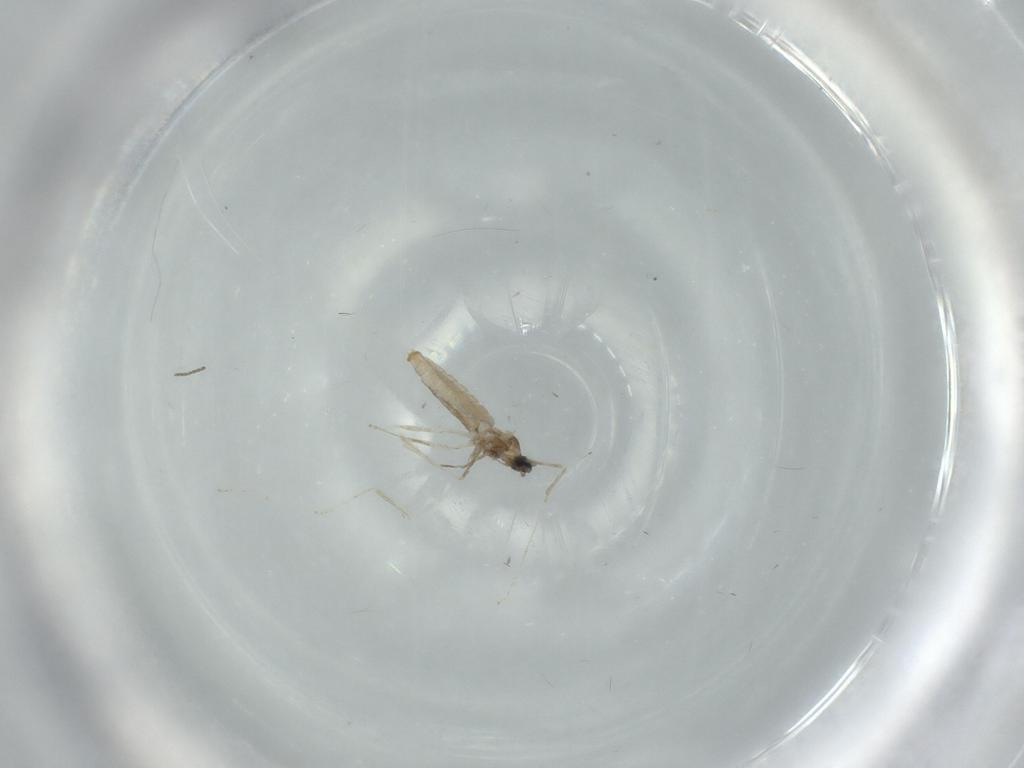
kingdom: Animalia
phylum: Arthropoda
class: Insecta
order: Diptera
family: Cecidomyiidae
